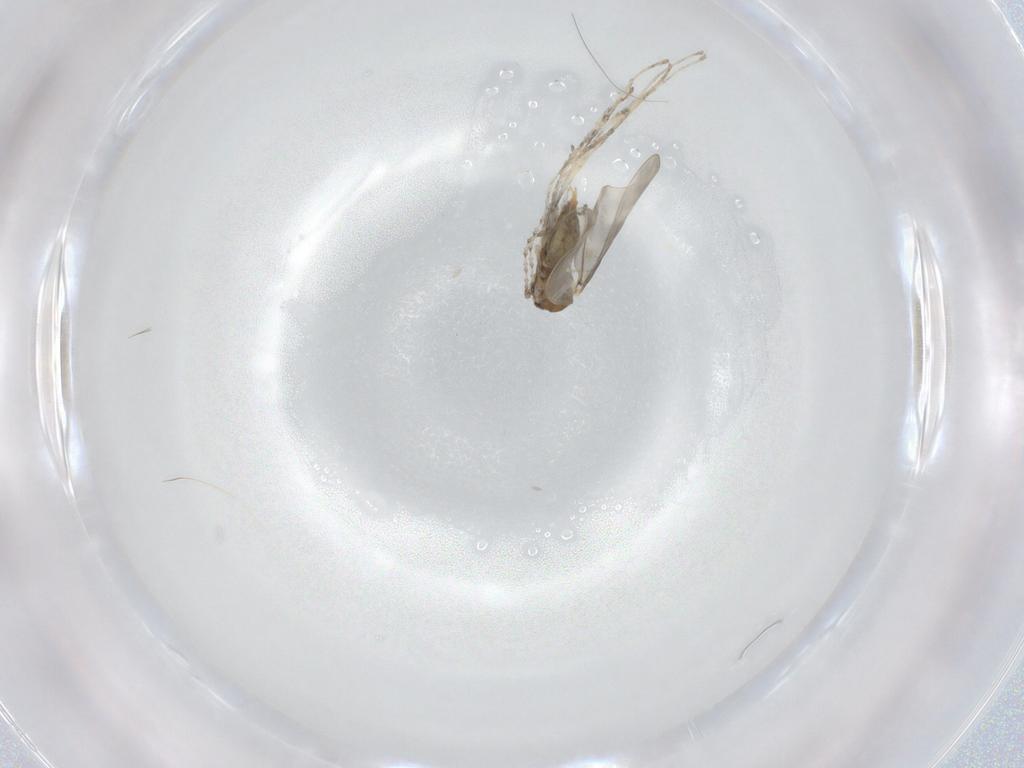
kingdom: Animalia
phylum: Arthropoda
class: Insecta
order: Diptera
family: Cecidomyiidae
